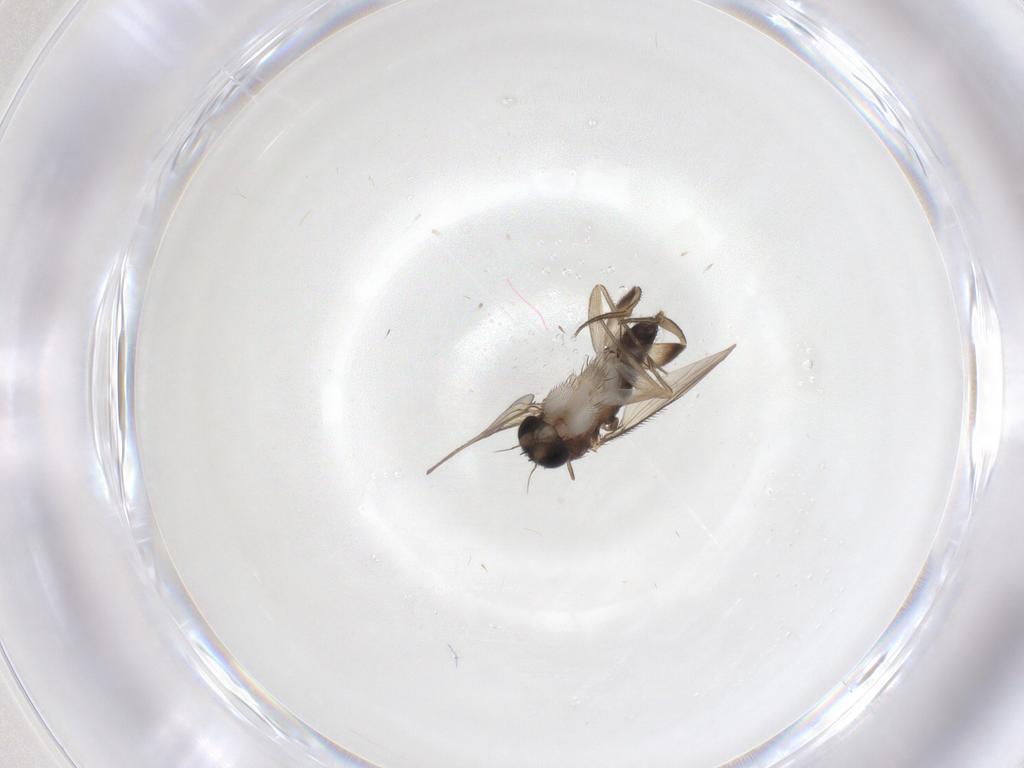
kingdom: Animalia
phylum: Arthropoda
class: Insecta
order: Diptera
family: Phoridae
